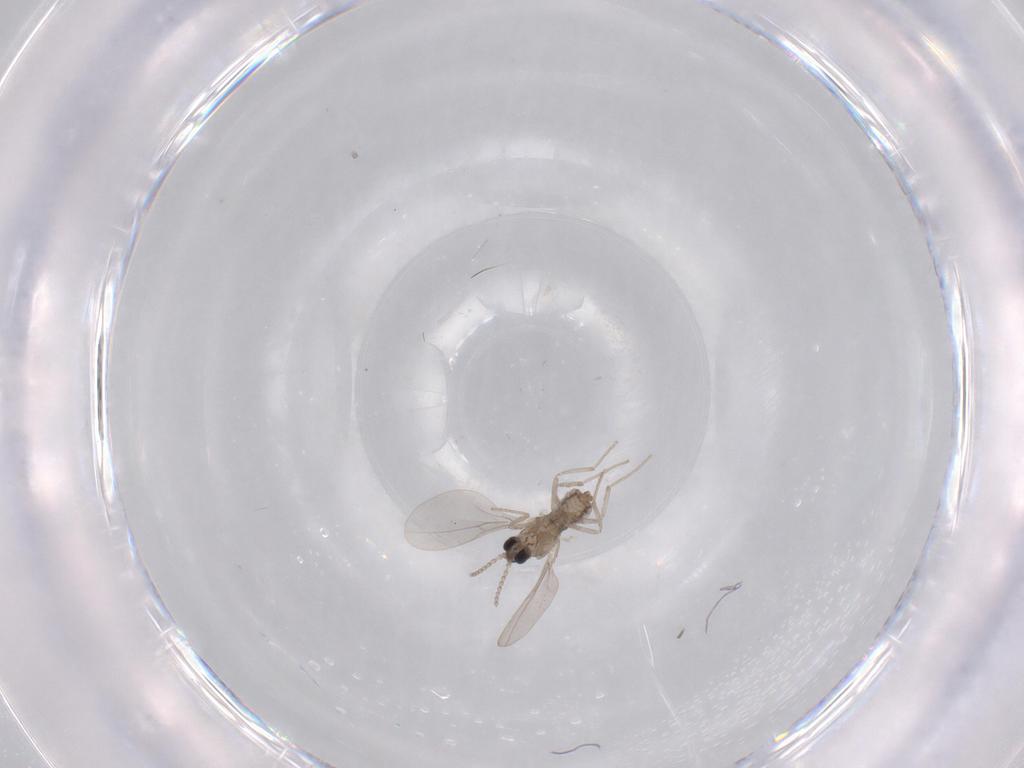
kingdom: Animalia
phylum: Arthropoda
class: Insecta
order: Diptera
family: Cecidomyiidae
